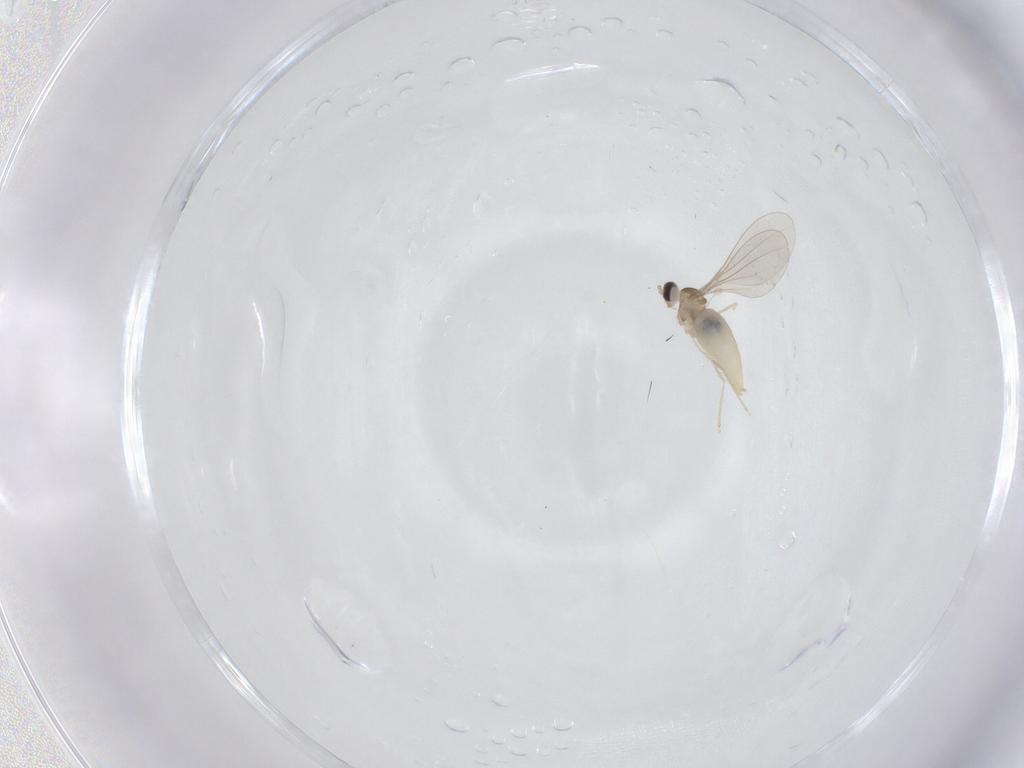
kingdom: Animalia
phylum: Arthropoda
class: Insecta
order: Diptera
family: Cecidomyiidae
